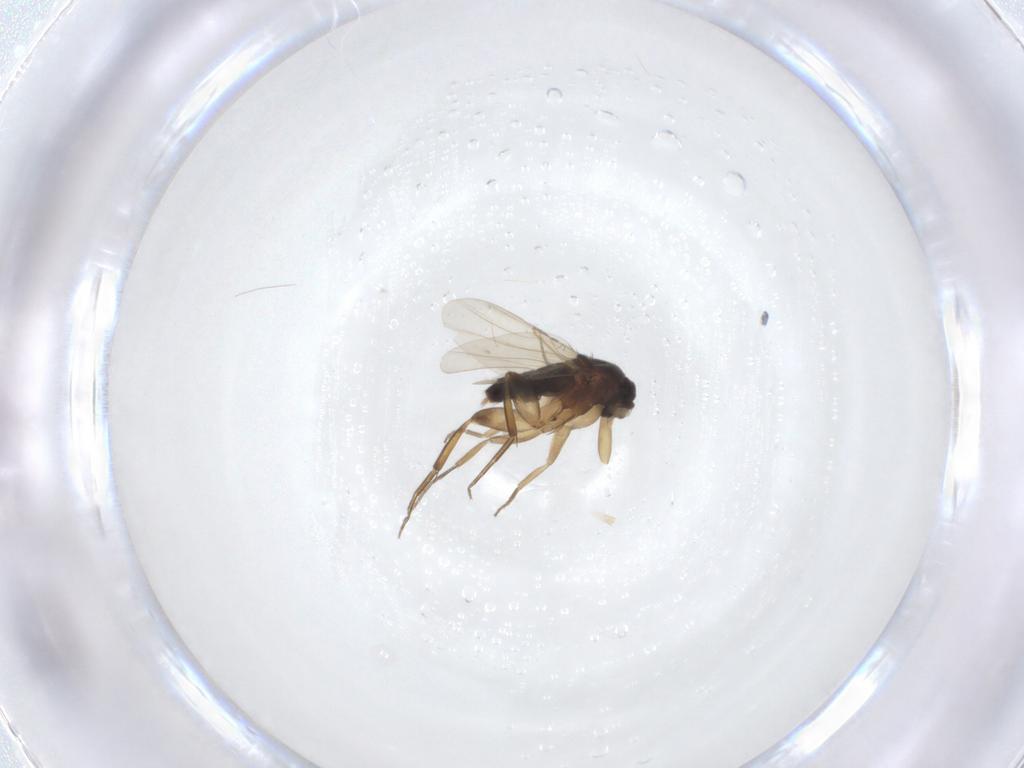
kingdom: Animalia
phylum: Arthropoda
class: Insecta
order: Diptera
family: Phoridae
